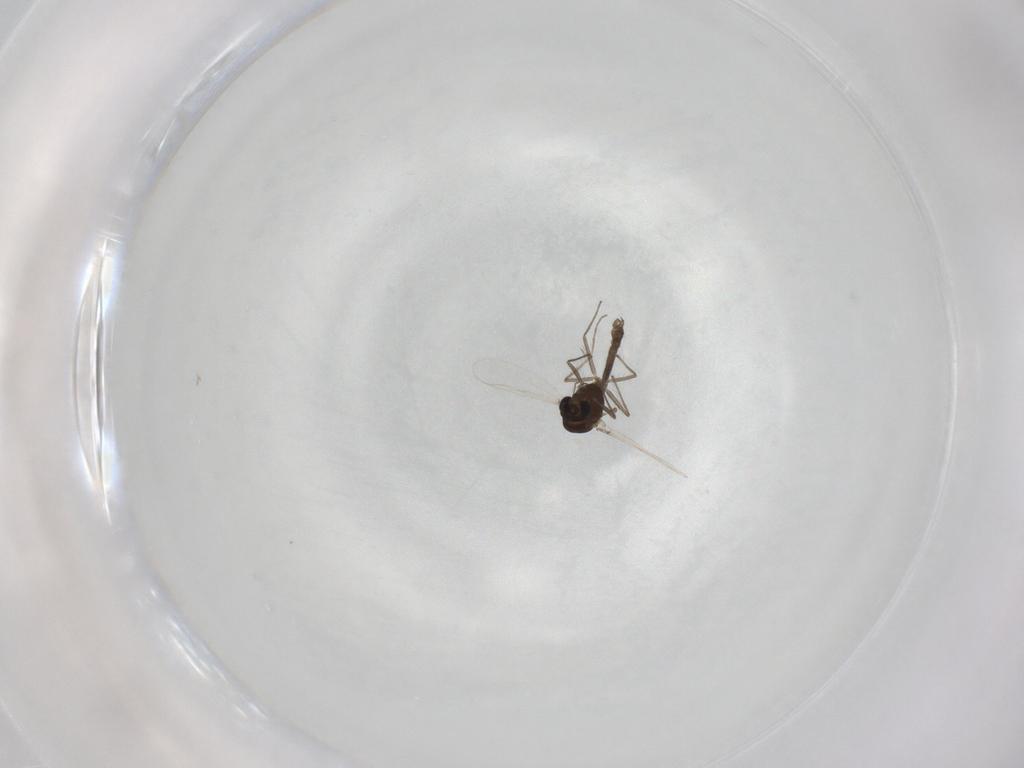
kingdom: Animalia
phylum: Arthropoda
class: Insecta
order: Diptera
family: Chironomidae
